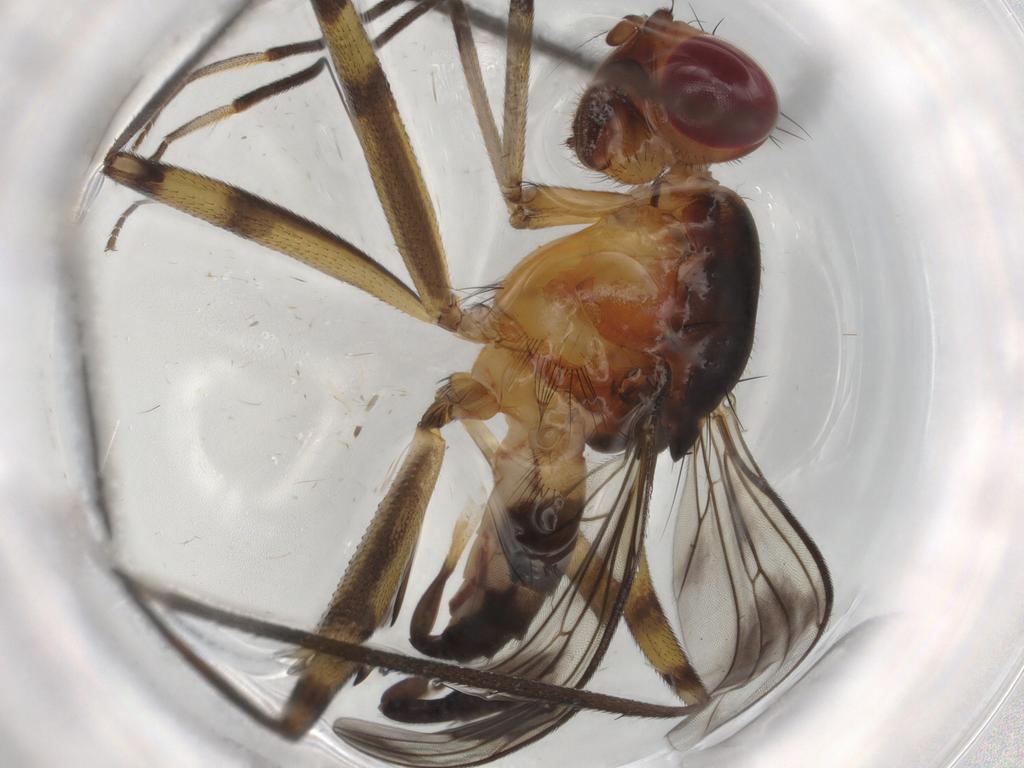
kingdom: Animalia
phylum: Arthropoda
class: Insecta
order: Diptera
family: Micropezidae
